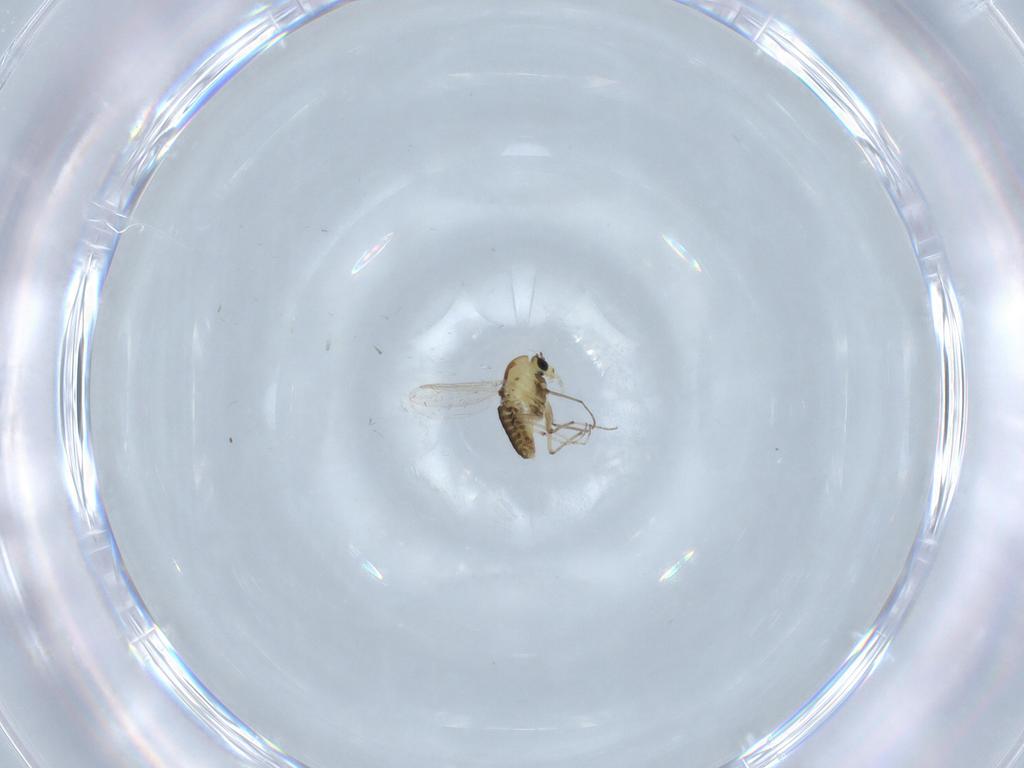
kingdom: Animalia
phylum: Arthropoda
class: Insecta
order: Diptera
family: Chironomidae
